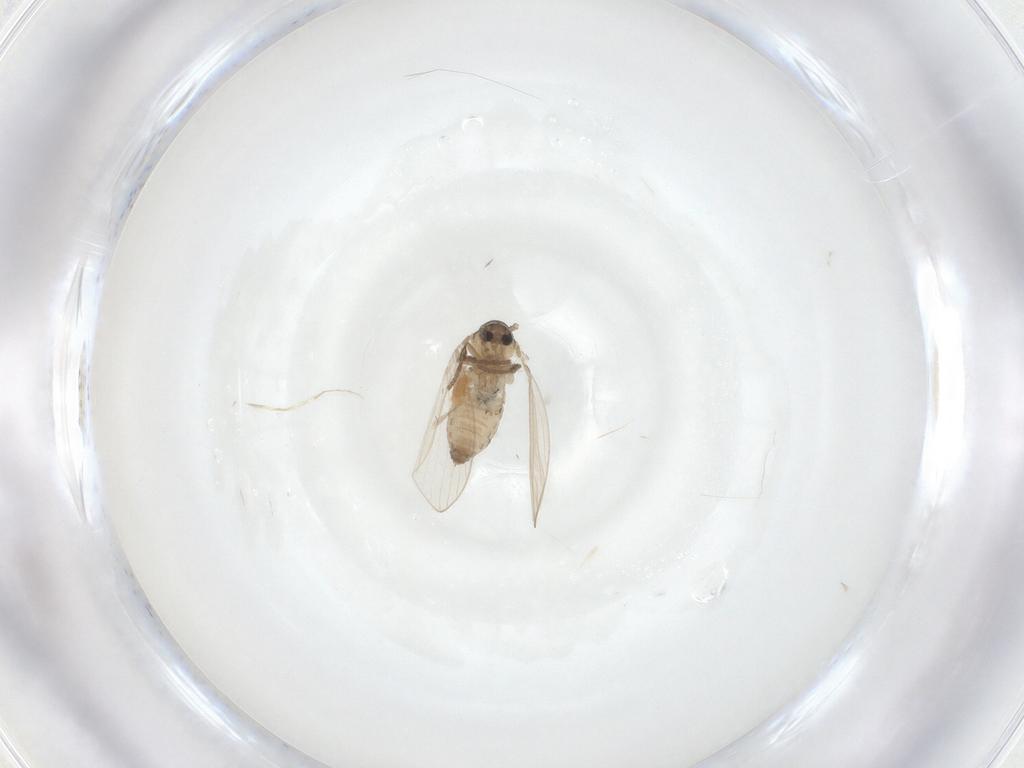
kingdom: Animalia
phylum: Arthropoda
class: Insecta
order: Diptera
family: Psychodidae
